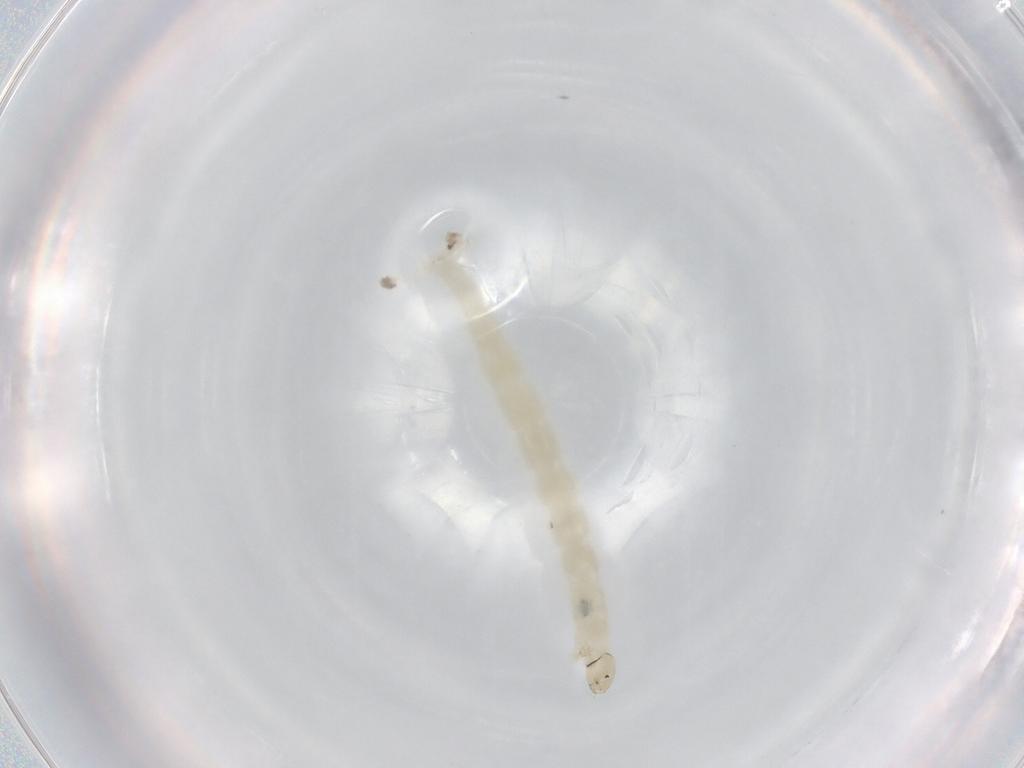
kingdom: Animalia
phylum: Arthropoda
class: Insecta
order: Diptera
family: Chironomidae
